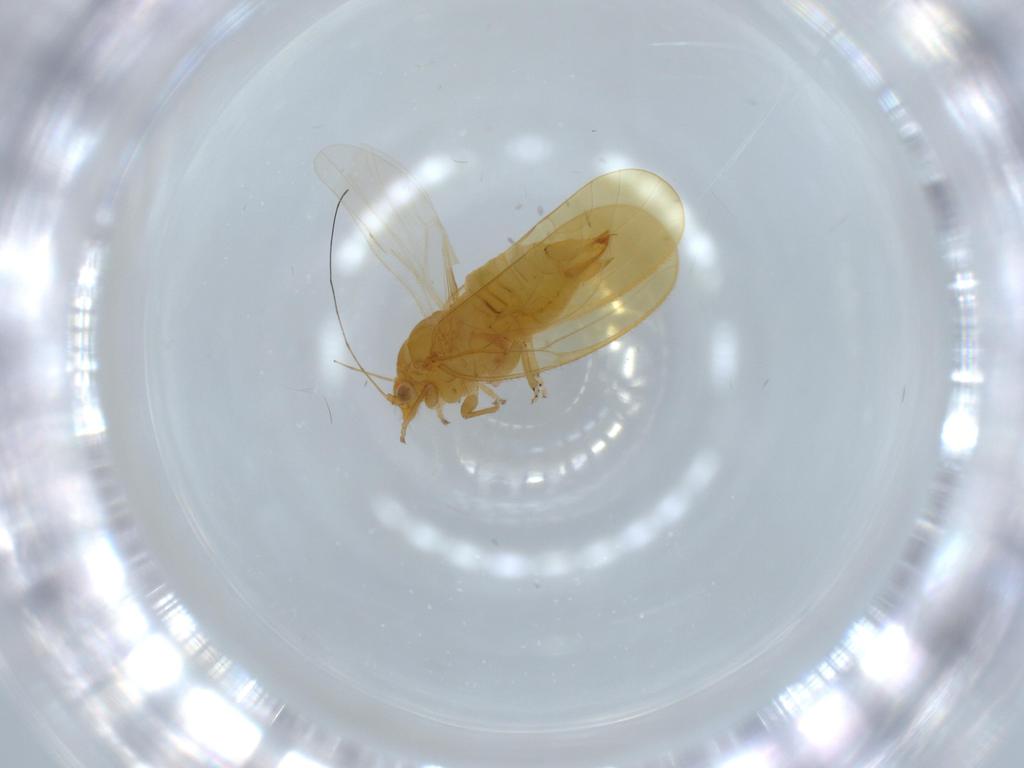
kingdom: Animalia
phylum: Arthropoda
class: Insecta
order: Hemiptera
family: Psyllidae
